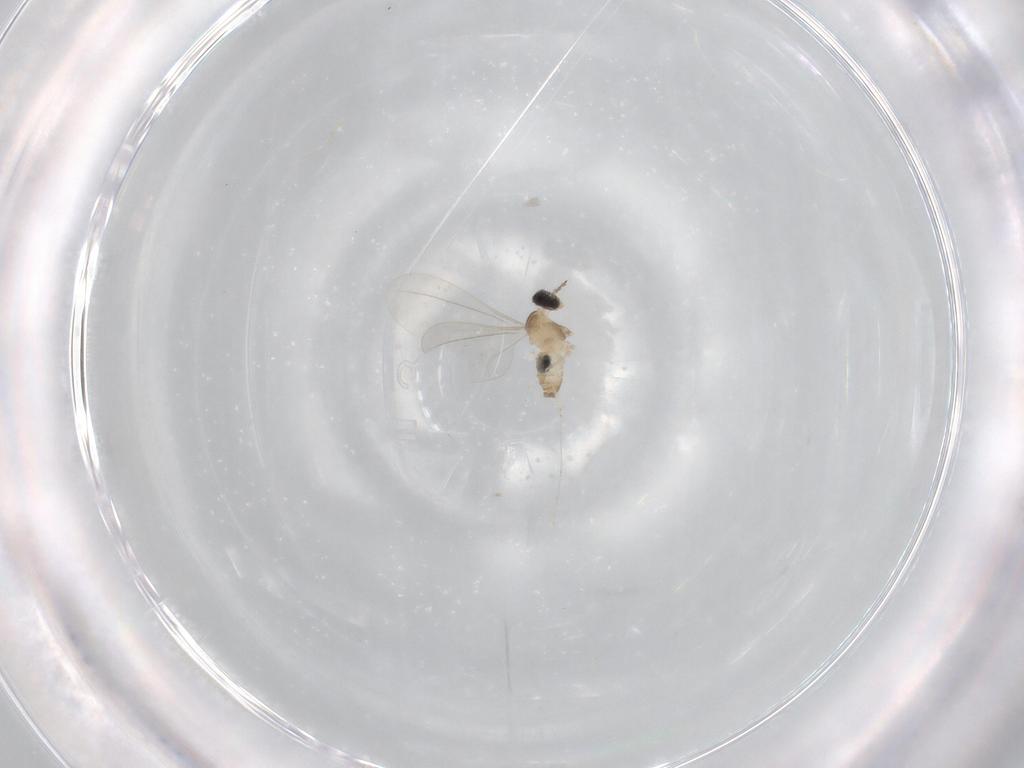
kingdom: Animalia
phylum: Arthropoda
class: Insecta
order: Diptera
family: Cecidomyiidae
